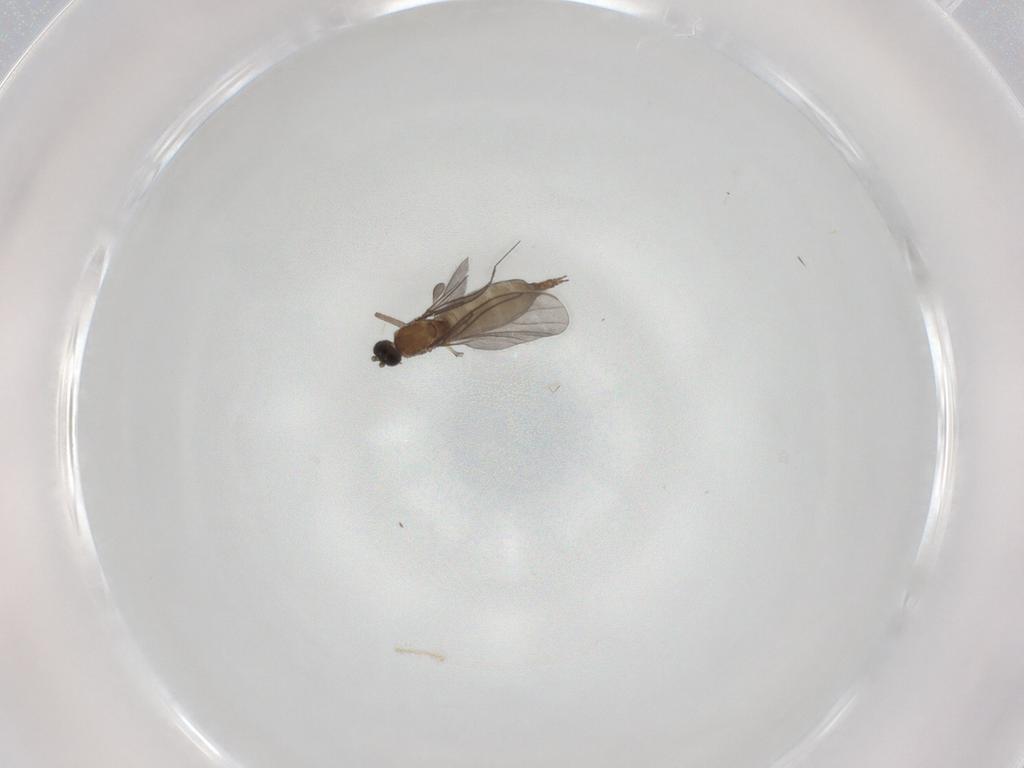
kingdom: Animalia
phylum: Arthropoda
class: Insecta
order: Diptera
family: Sciaridae
